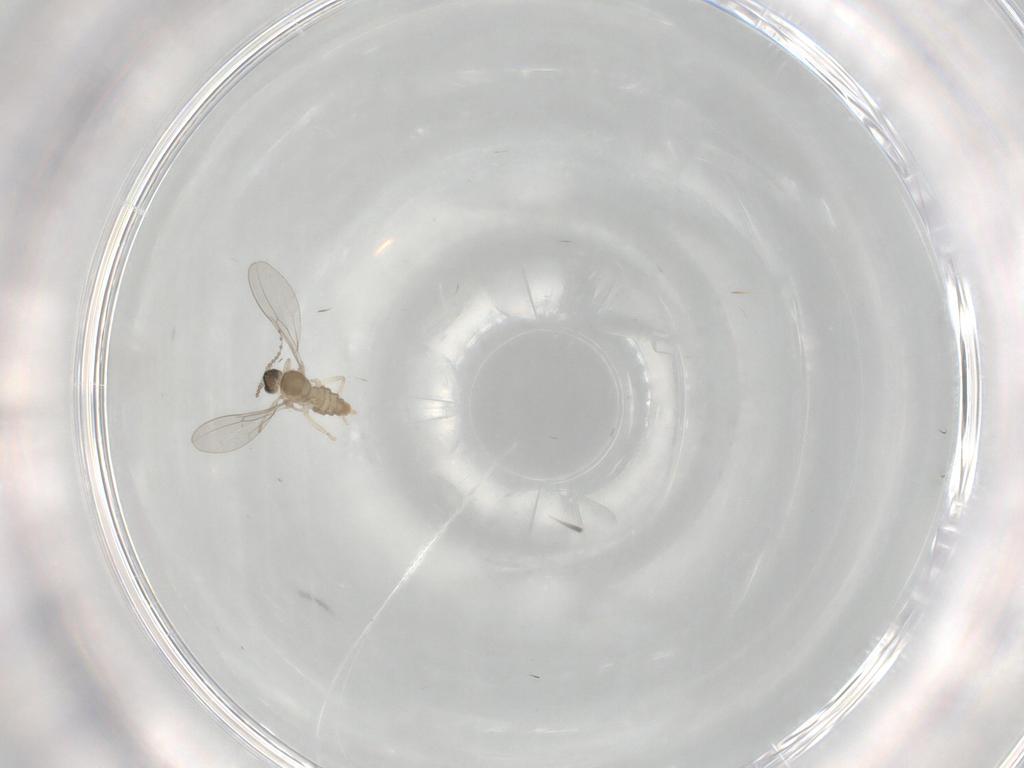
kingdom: Animalia
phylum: Arthropoda
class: Insecta
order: Diptera
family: Cecidomyiidae
